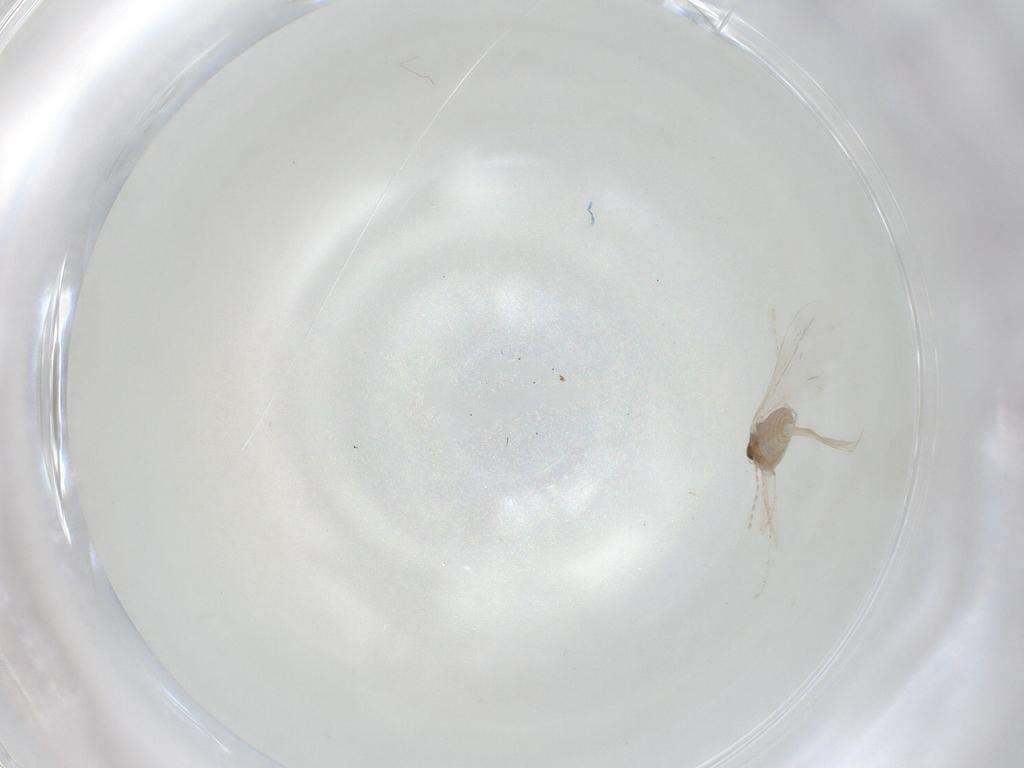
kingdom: Animalia
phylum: Arthropoda
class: Insecta
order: Diptera
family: Cecidomyiidae
